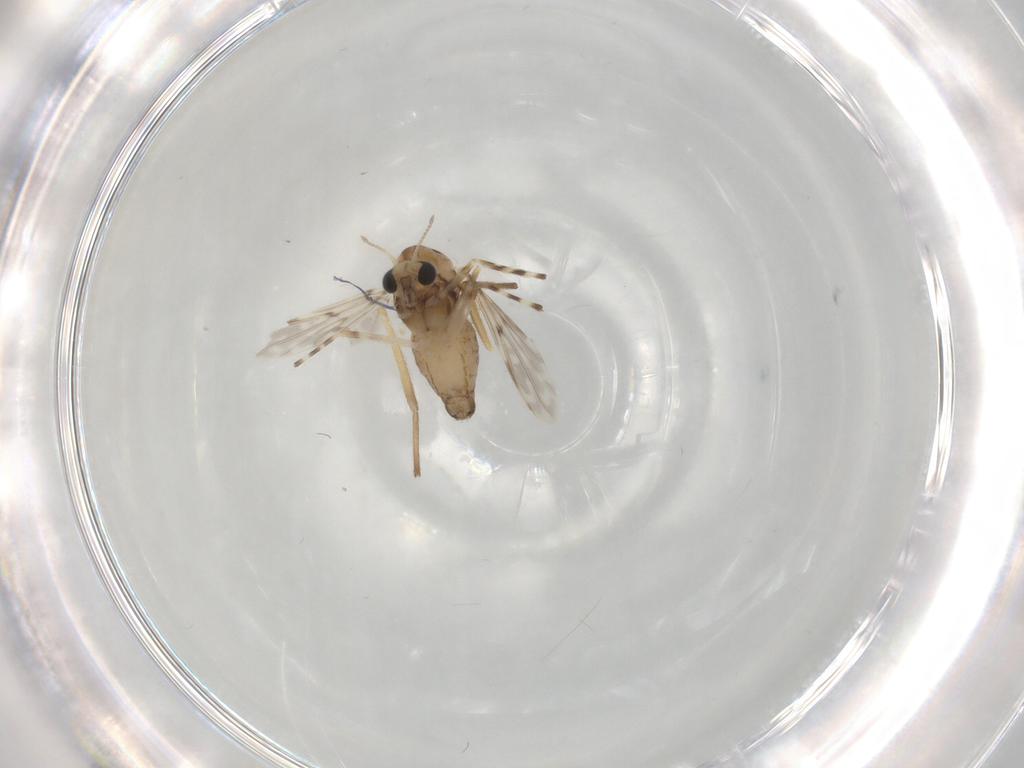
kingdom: Animalia
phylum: Arthropoda
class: Insecta
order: Diptera
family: Chironomidae
